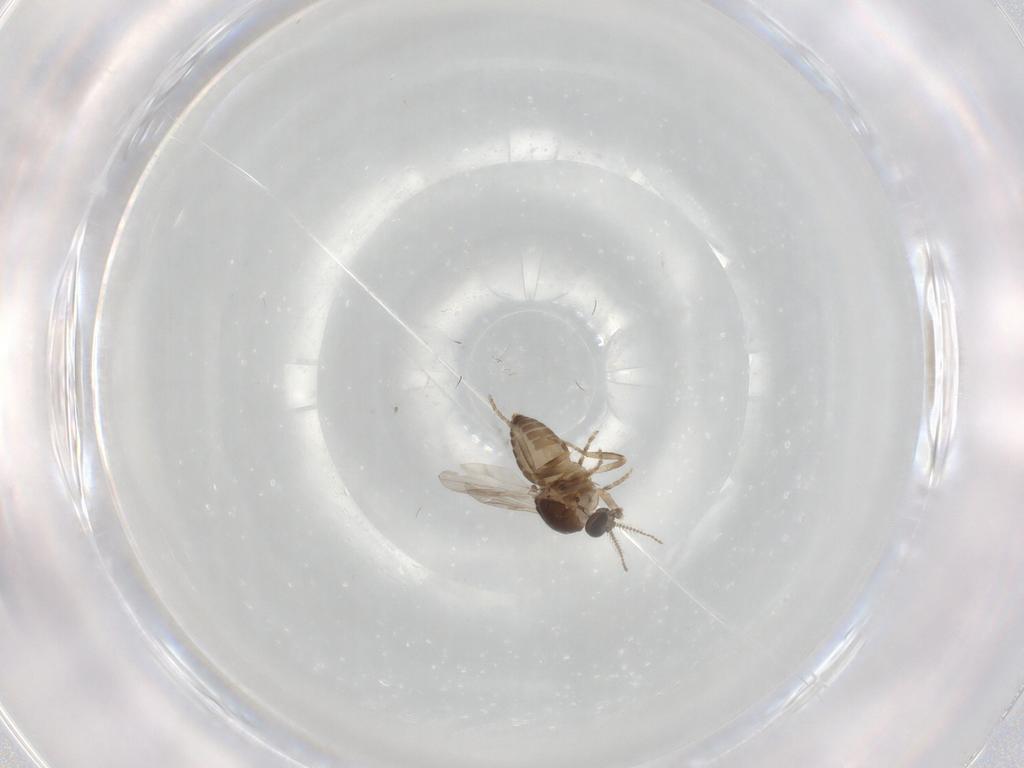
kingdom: Animalia
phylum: Arthropoda
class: Insecta
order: Diptera
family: Ceratopogonidae
